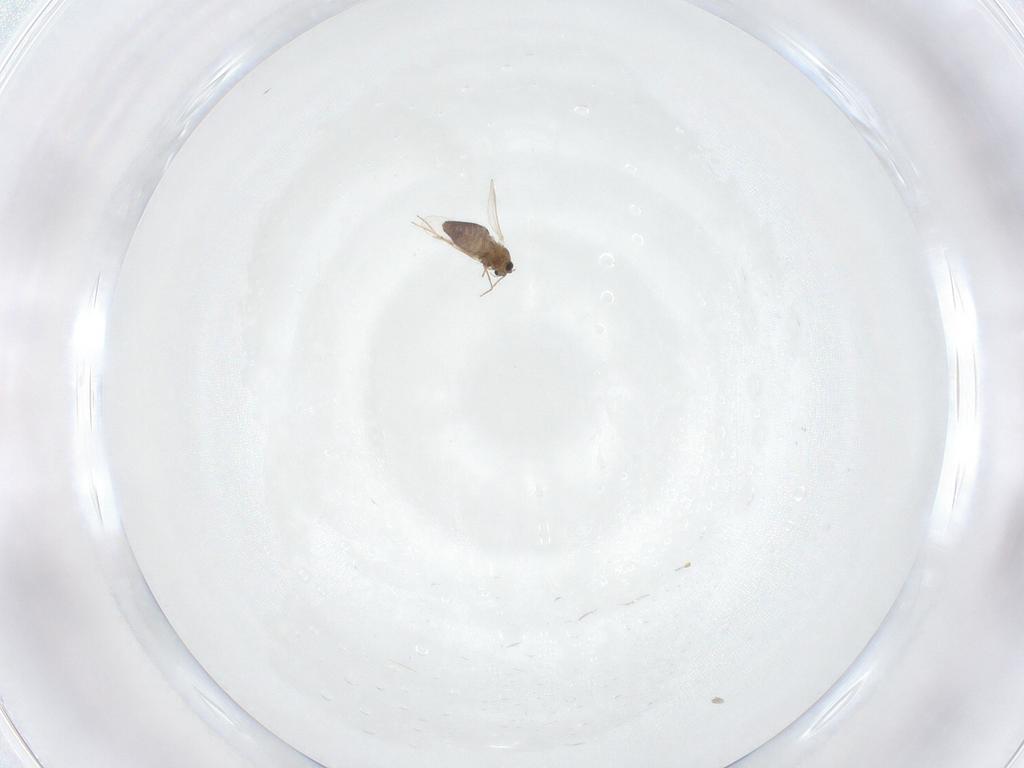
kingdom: Animalia
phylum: Arthropoda
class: Insecta
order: Diptera
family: Chironomidae
